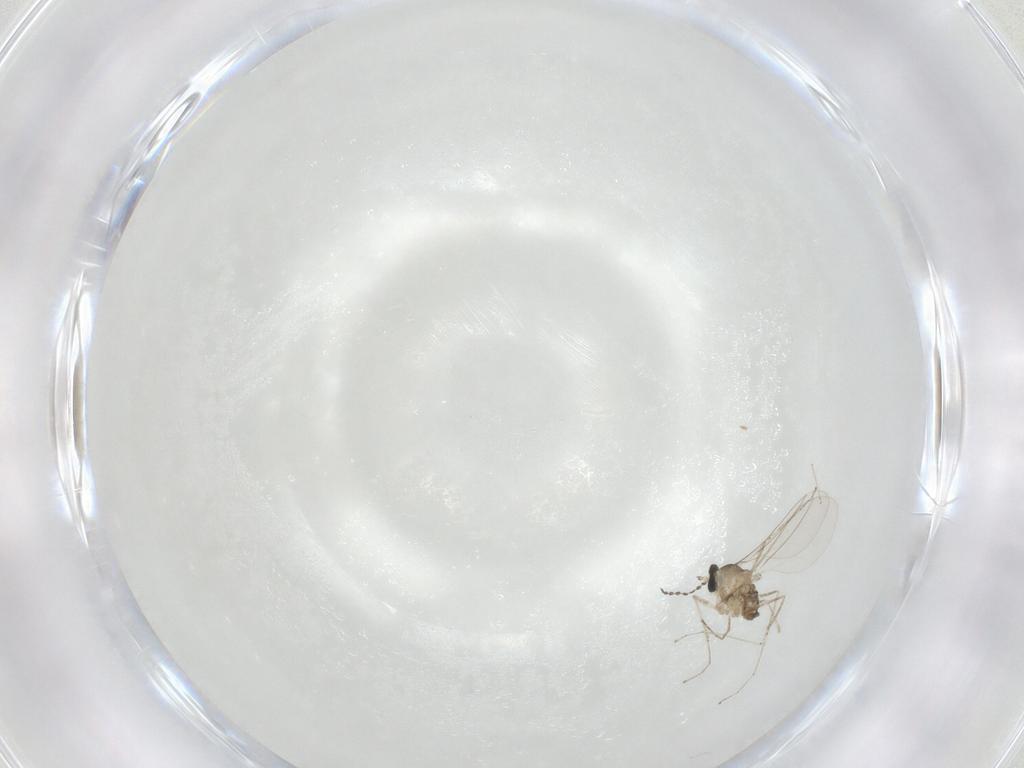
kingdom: Animalia
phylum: Arthropoda
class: Insecta
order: Diptera
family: Cecidomyiidae
